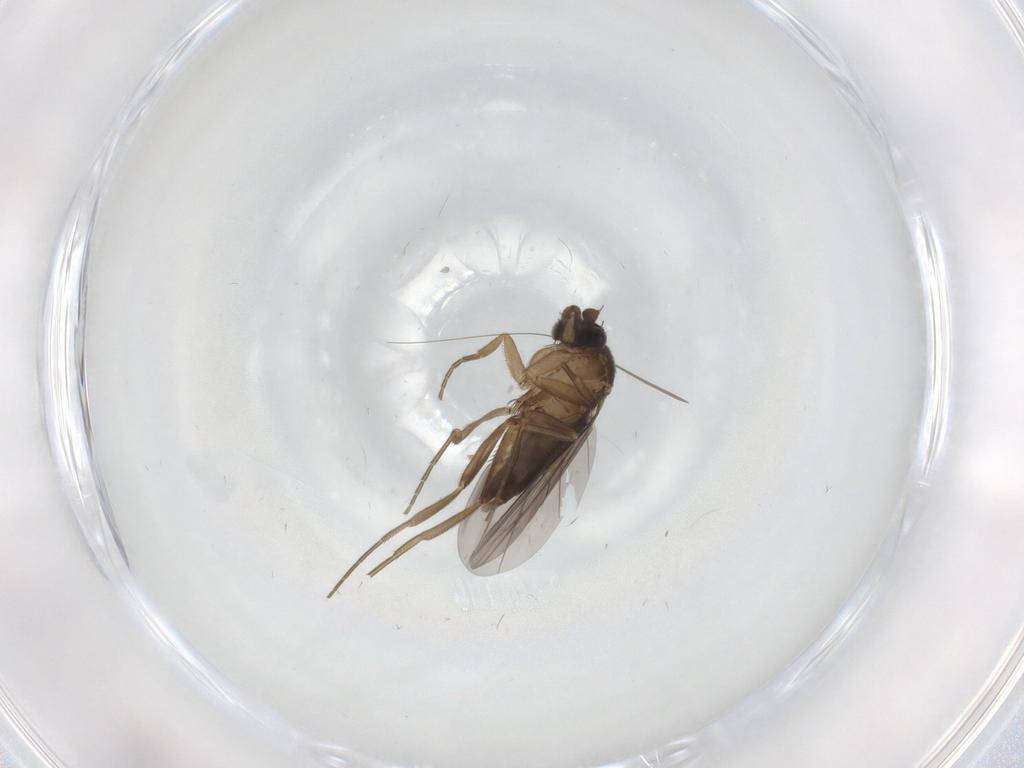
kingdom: Animalia
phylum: Arthropoda
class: Insecta
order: Diptera
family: Phoridae
